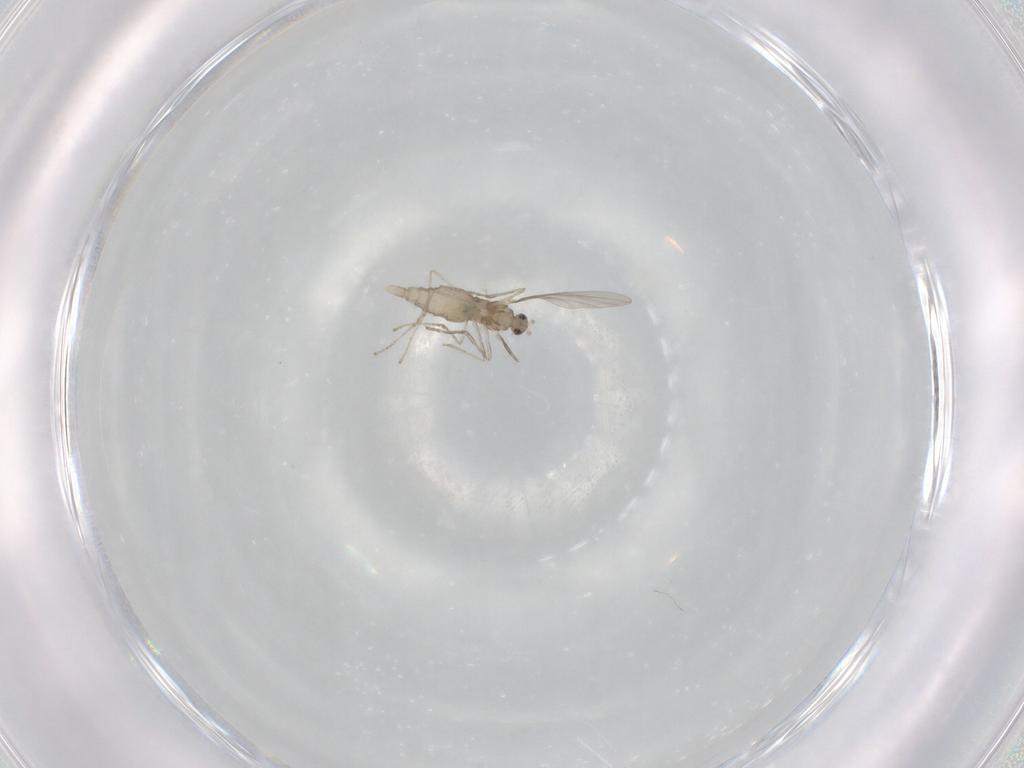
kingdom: Animalia
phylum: Arthropoda
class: Insecta
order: Diptera
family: Cecidomyiidae
